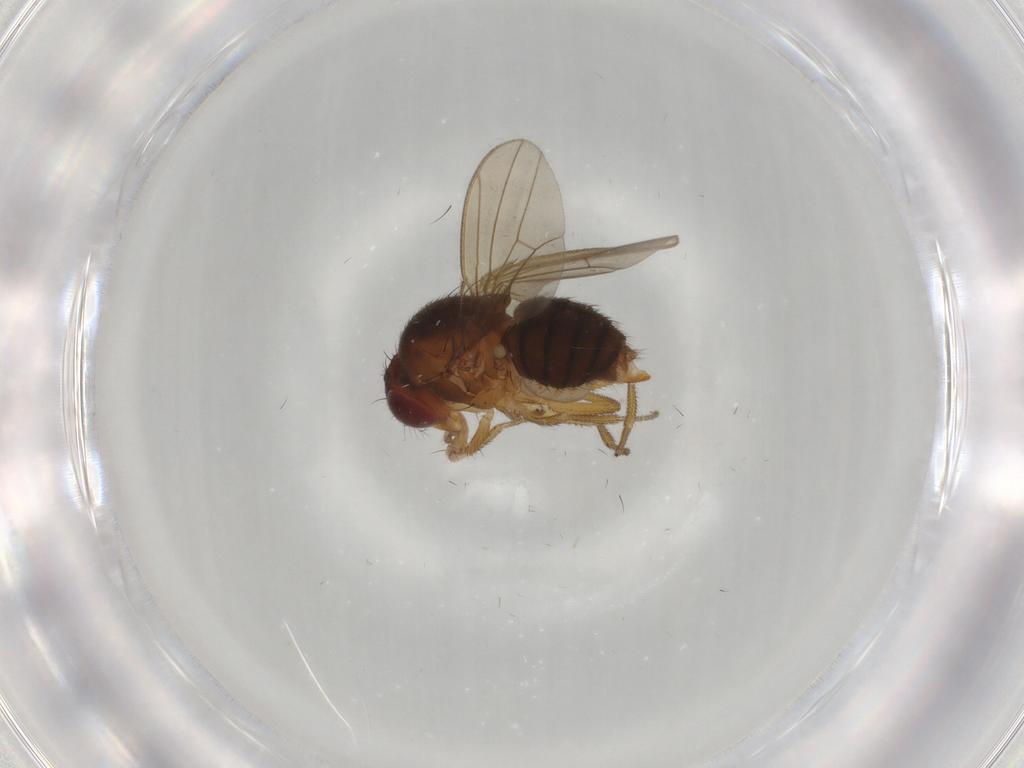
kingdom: Animalia
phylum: Arthropoda
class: Insecta
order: Diptera
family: Drosophilidae
